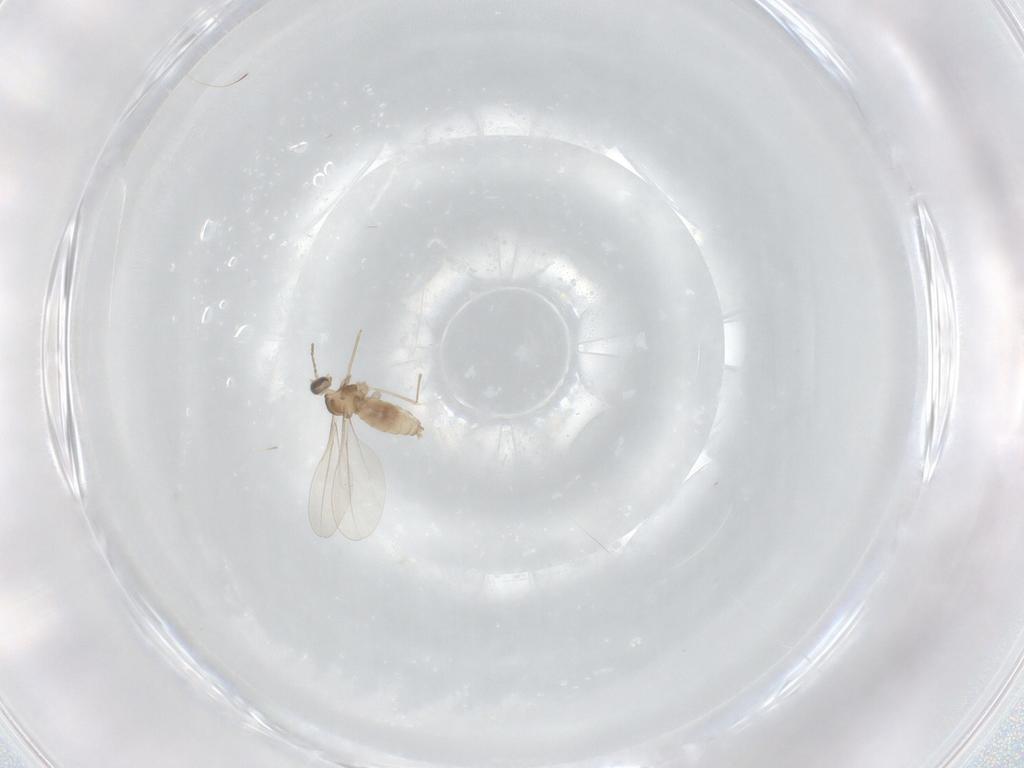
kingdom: Animalia
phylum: Arthropoda
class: Insecta
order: Diptera
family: Cecidomyiidae
